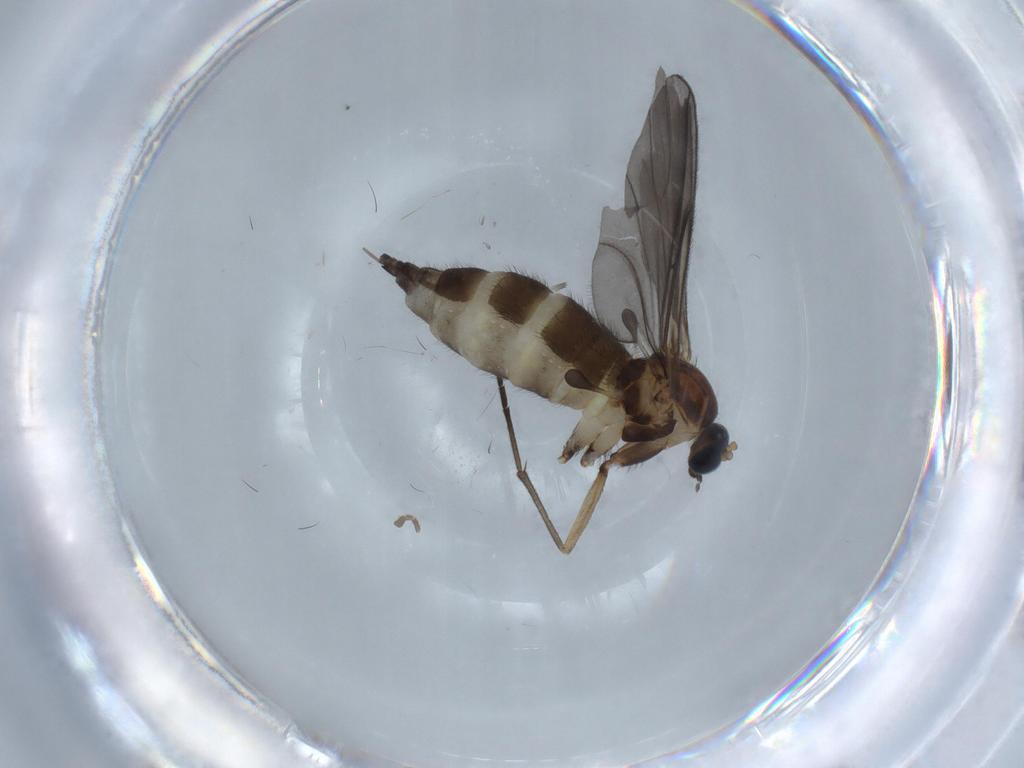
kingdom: Animalia
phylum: Arthropoda
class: Insecta
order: Diptera
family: Sciaridae
